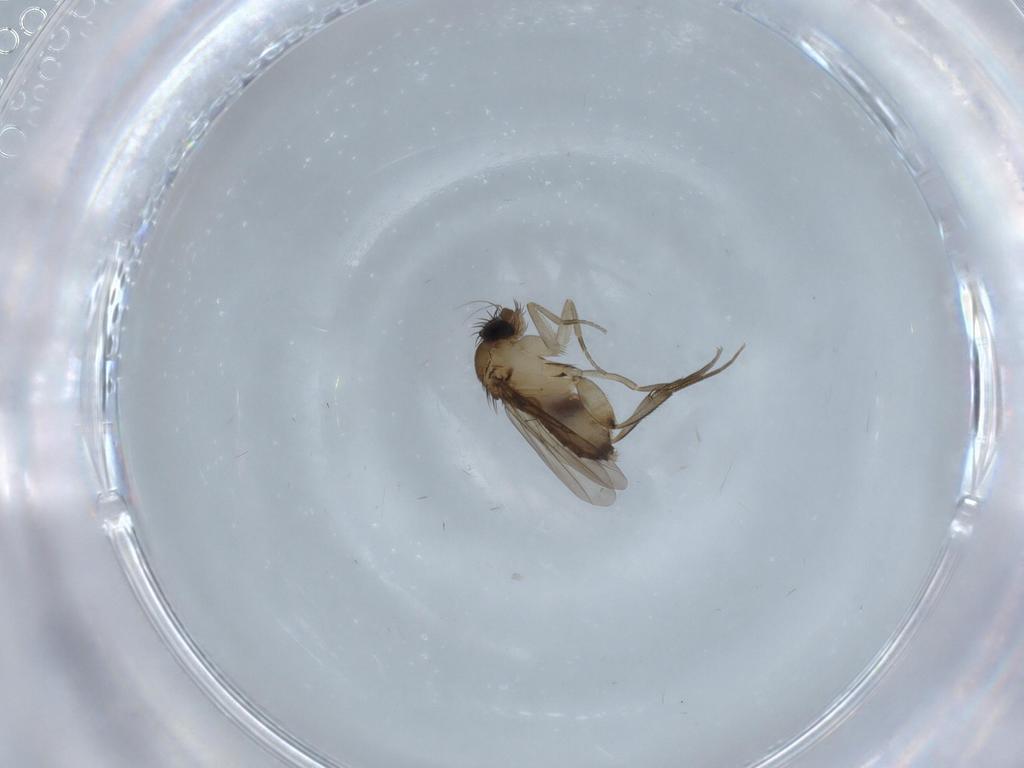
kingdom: Animalia
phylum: Arthropoda
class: Insecta
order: Diptera
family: Phoridae
